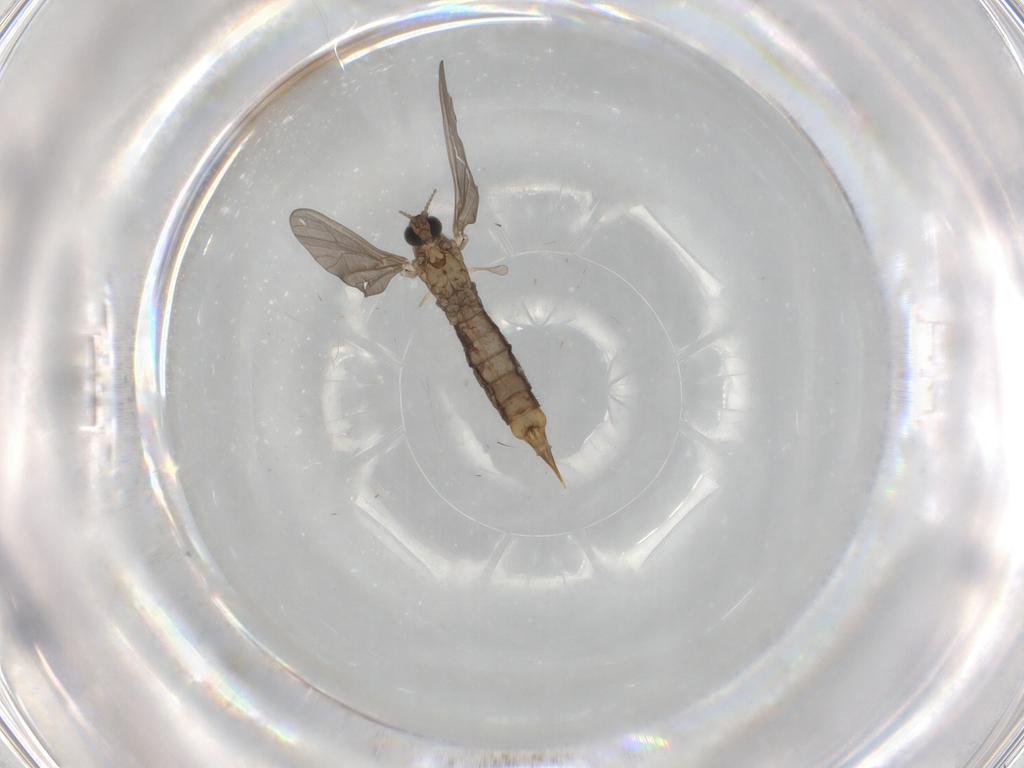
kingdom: Animalia
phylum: Arthropoda
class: Insecta
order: Diptera
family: Limoniidae
